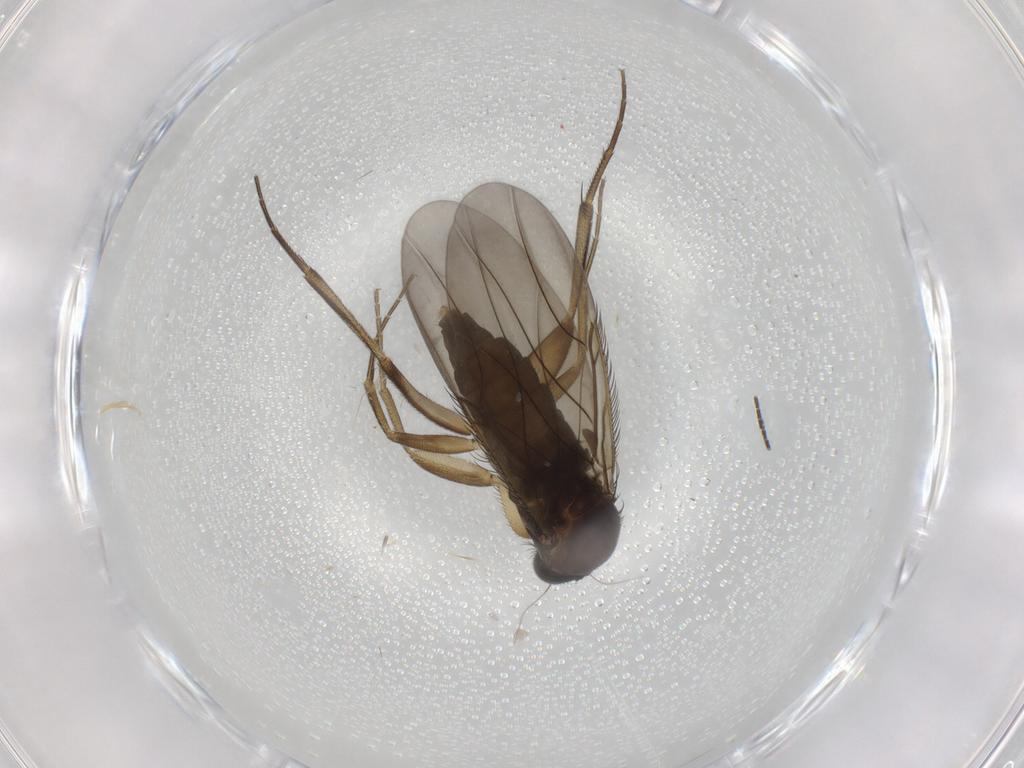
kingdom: Animalia
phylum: Arthropoda
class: Insecta
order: Diptera
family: Phoridae
